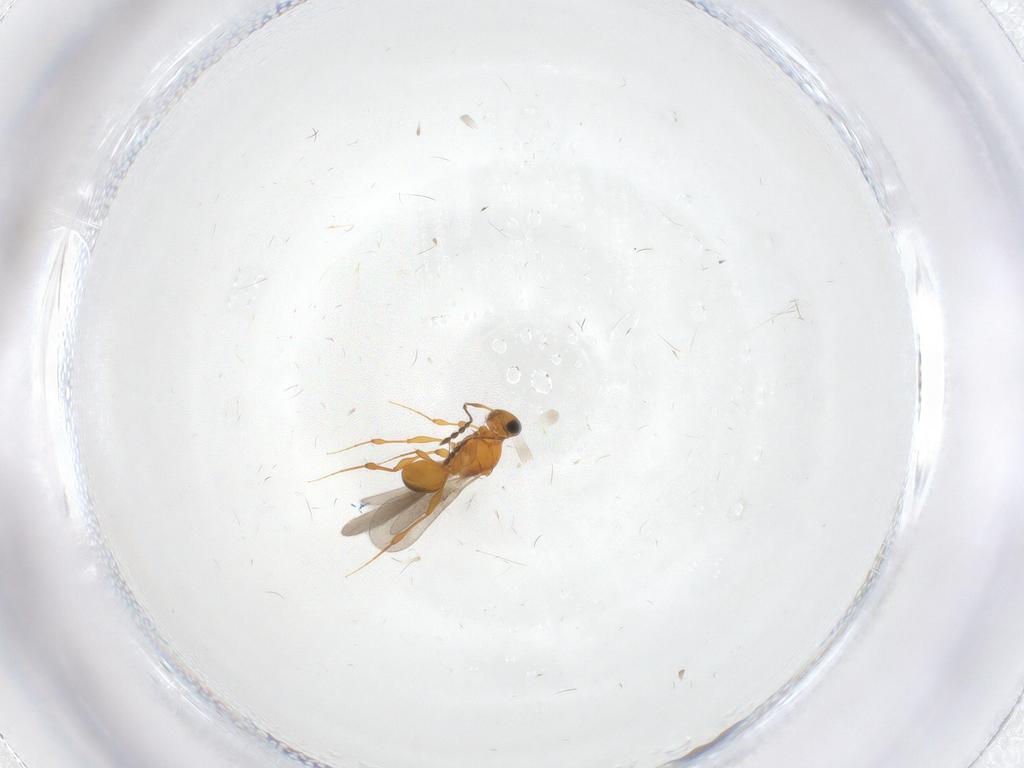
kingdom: Animalia
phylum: Arthropoda
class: Insecta
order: Hymenoptera
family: Platygastridae
